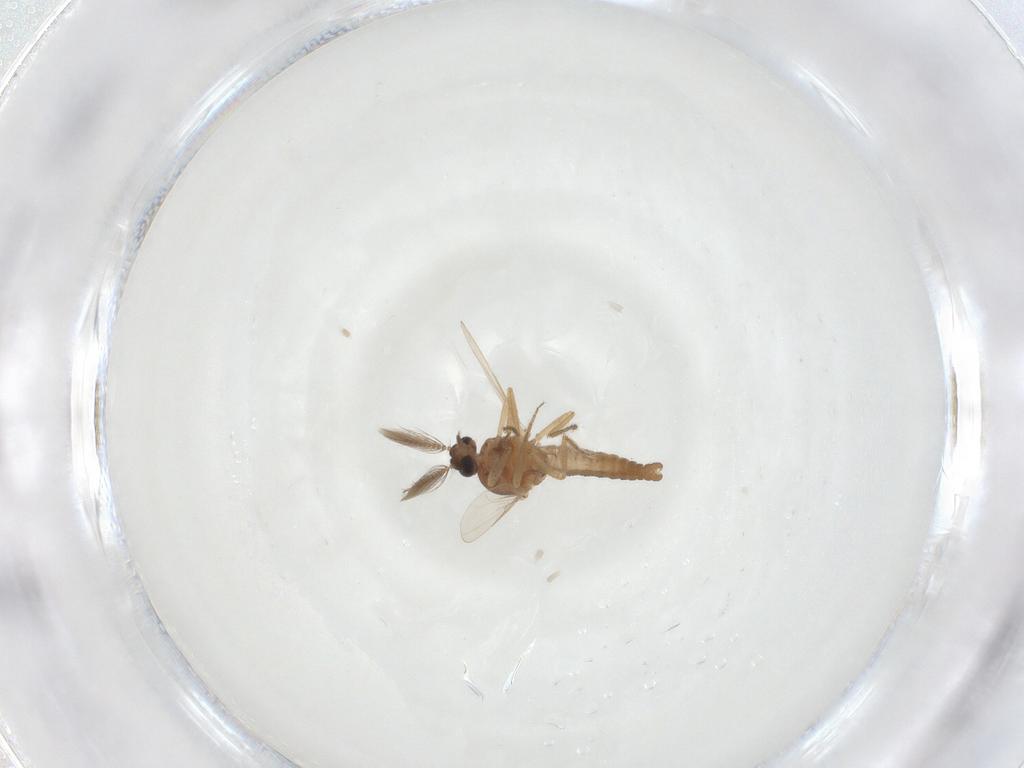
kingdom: Animalia
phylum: Arthropoda
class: Insecta
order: Diptera
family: Ceratopogonidae
